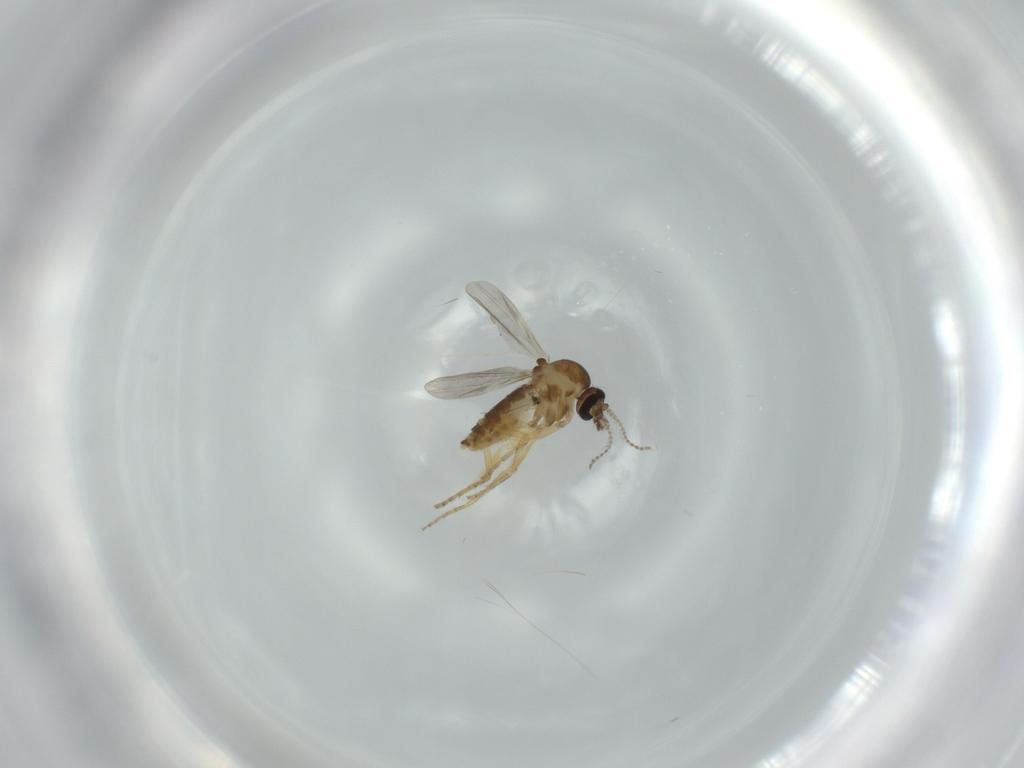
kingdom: Animalia
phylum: Arthropoda
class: Insecta
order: Diptera
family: Ceratopogonidae
